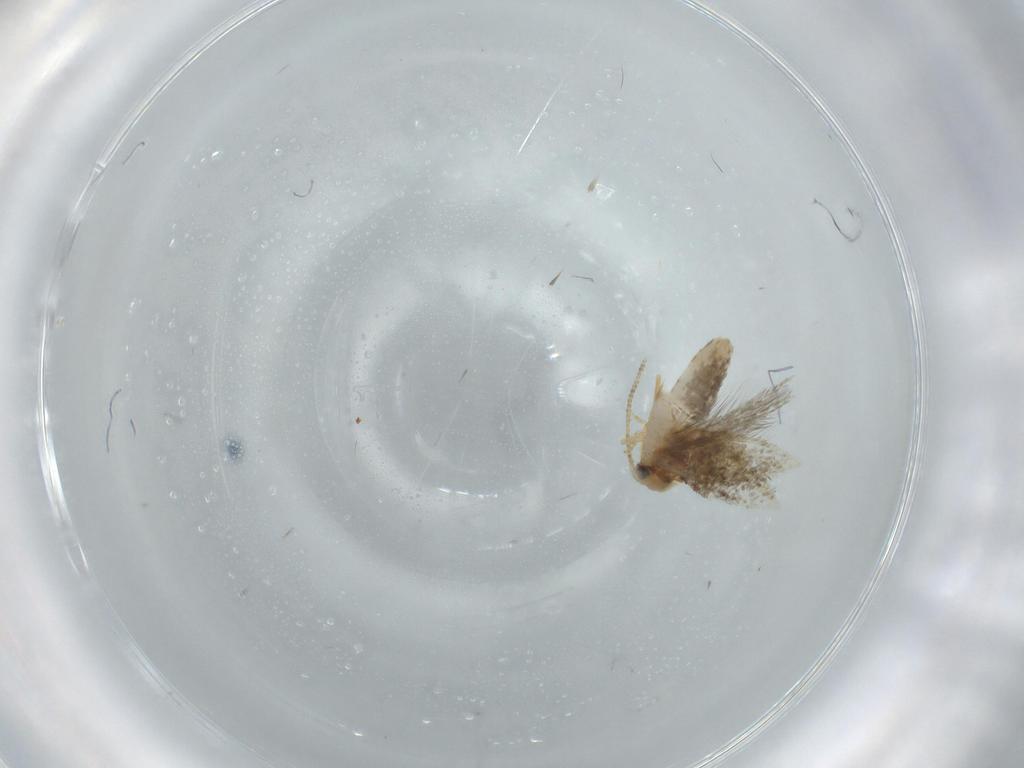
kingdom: Animalia
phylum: Arthropoda
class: Insecta
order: Lepidoptera
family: Nepticulidae
